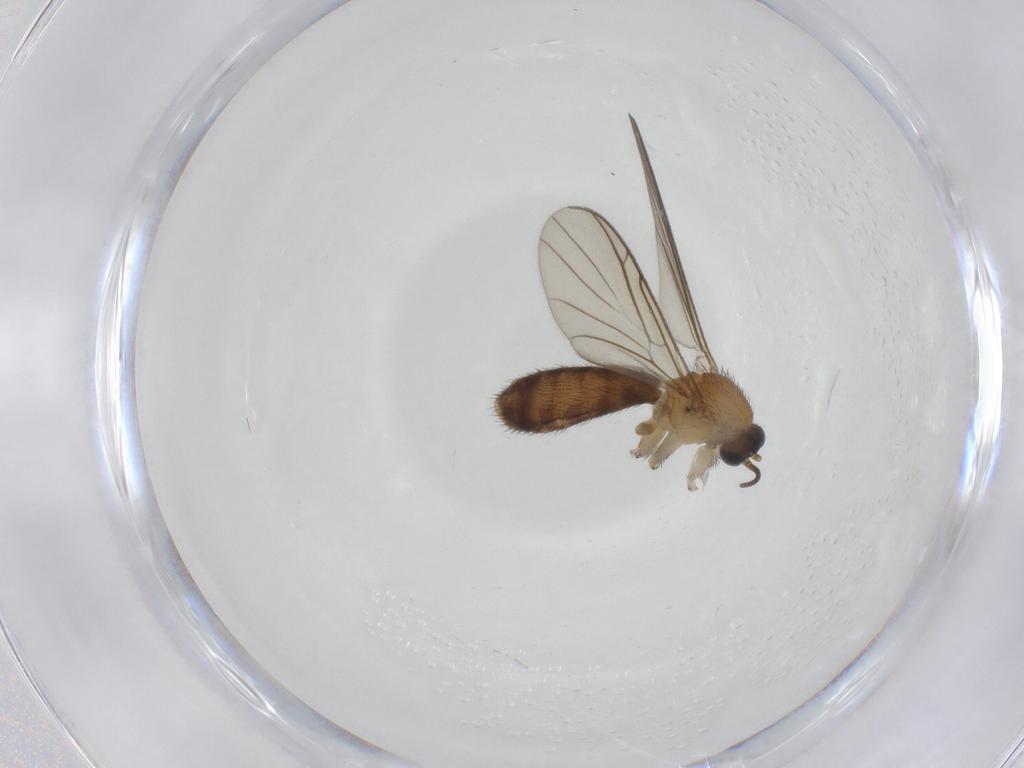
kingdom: Animalia
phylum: Arthropoda
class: Insecta
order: Diptera
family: Keroplatidae
